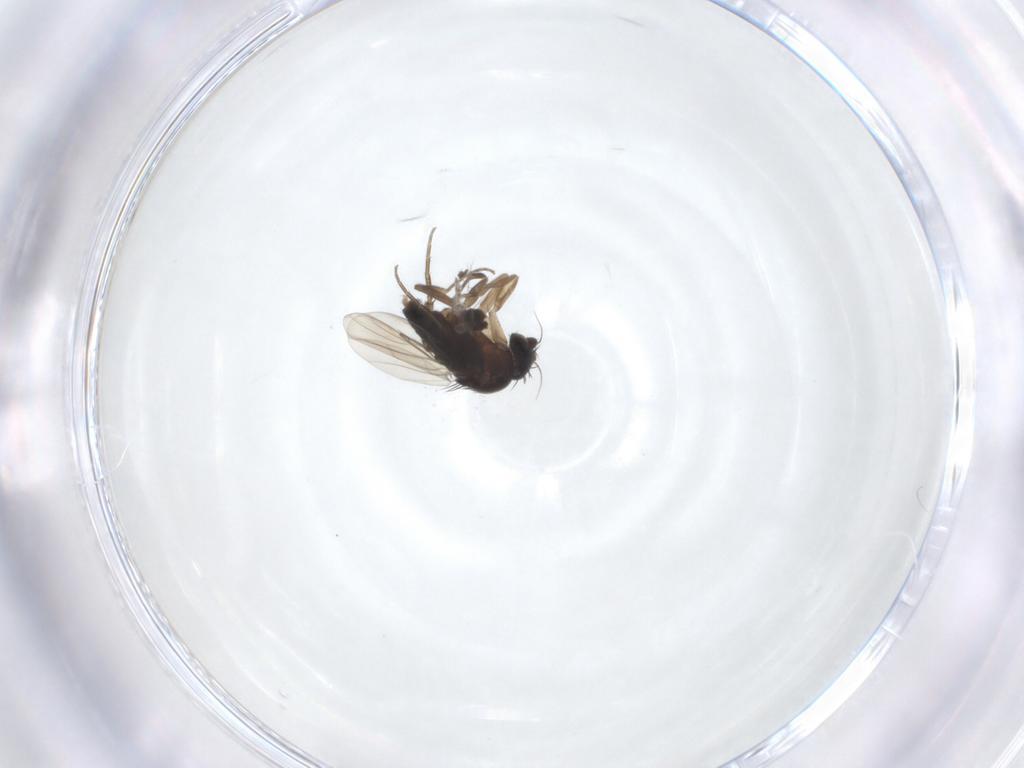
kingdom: Animalia
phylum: Arthropoda
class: Insecta
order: Diptera
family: Phoridae
